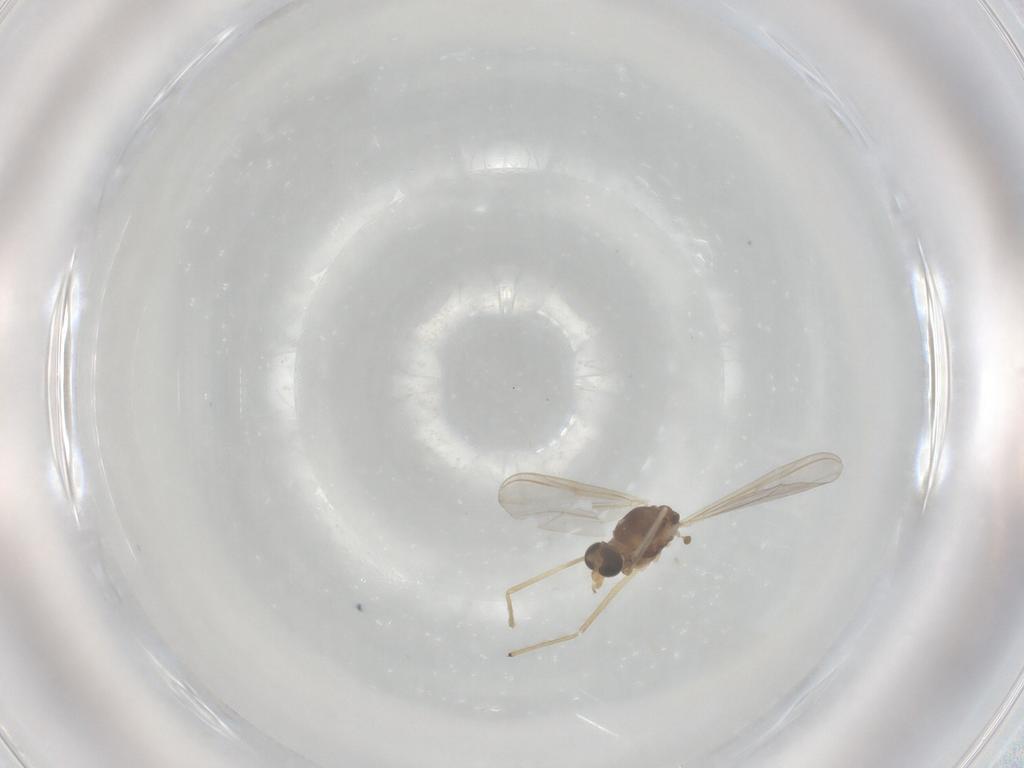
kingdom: Animalia
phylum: Arthropoda
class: Insecta
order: Diptera
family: Chironomidae
